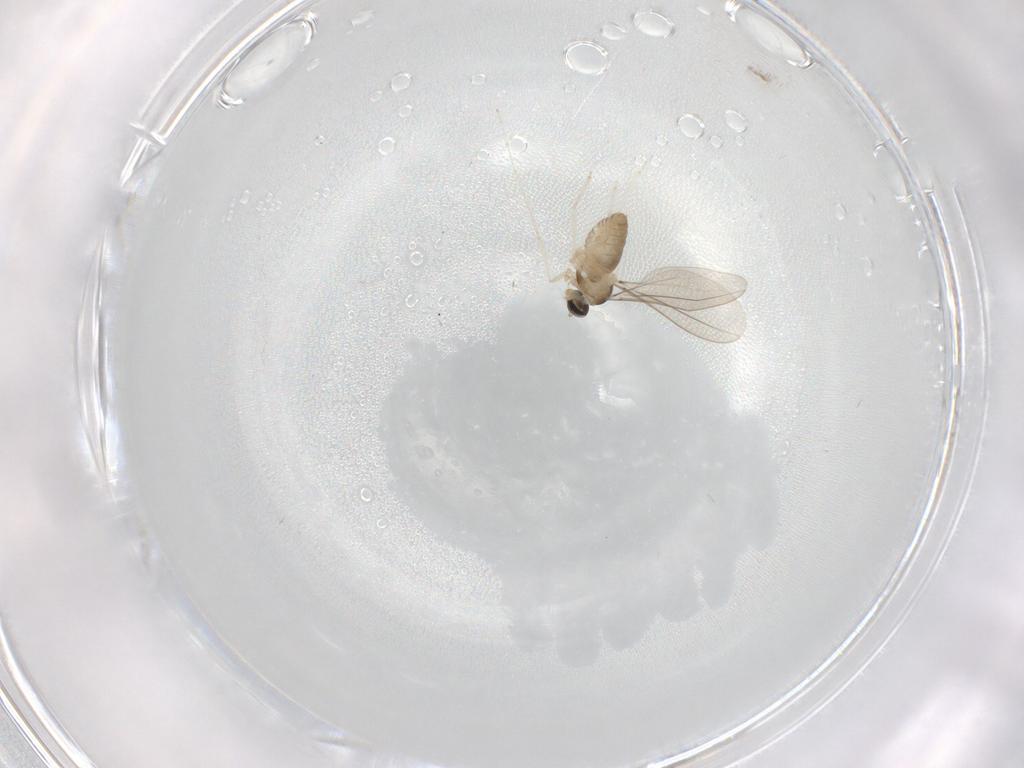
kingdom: Animalia
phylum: Arthropoda
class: Insecta
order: Diptera
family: Cecidomyiidae
